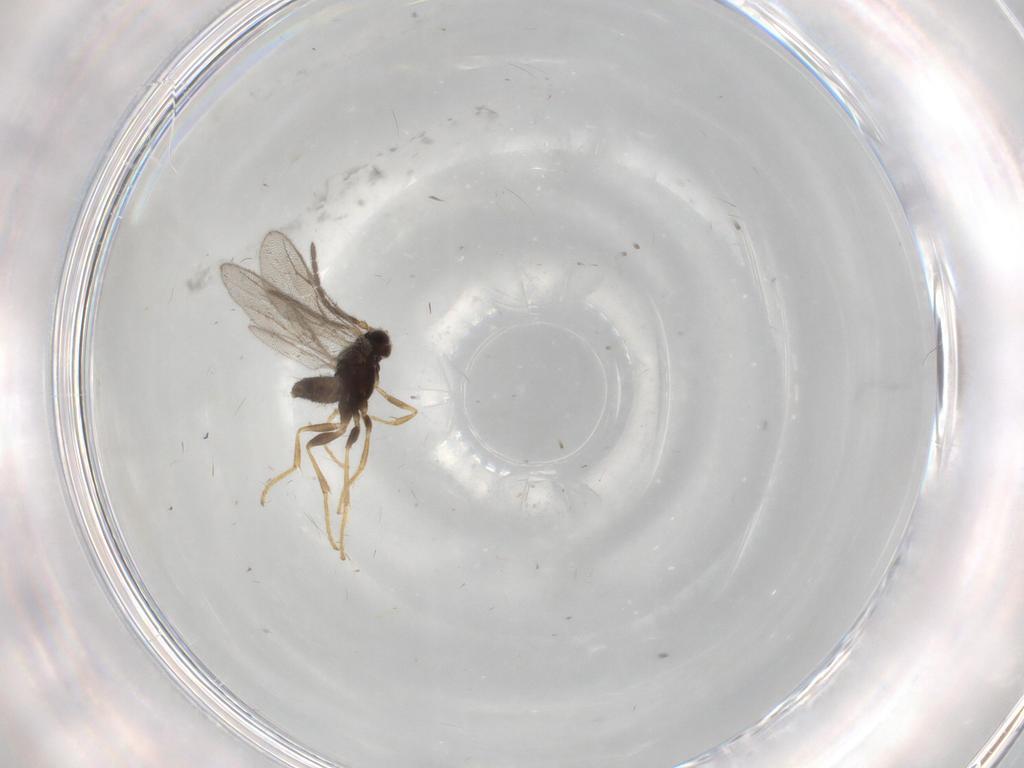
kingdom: Animalia
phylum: Arthropoda
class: Insecta
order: Hymenoptera
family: Dryinidae
